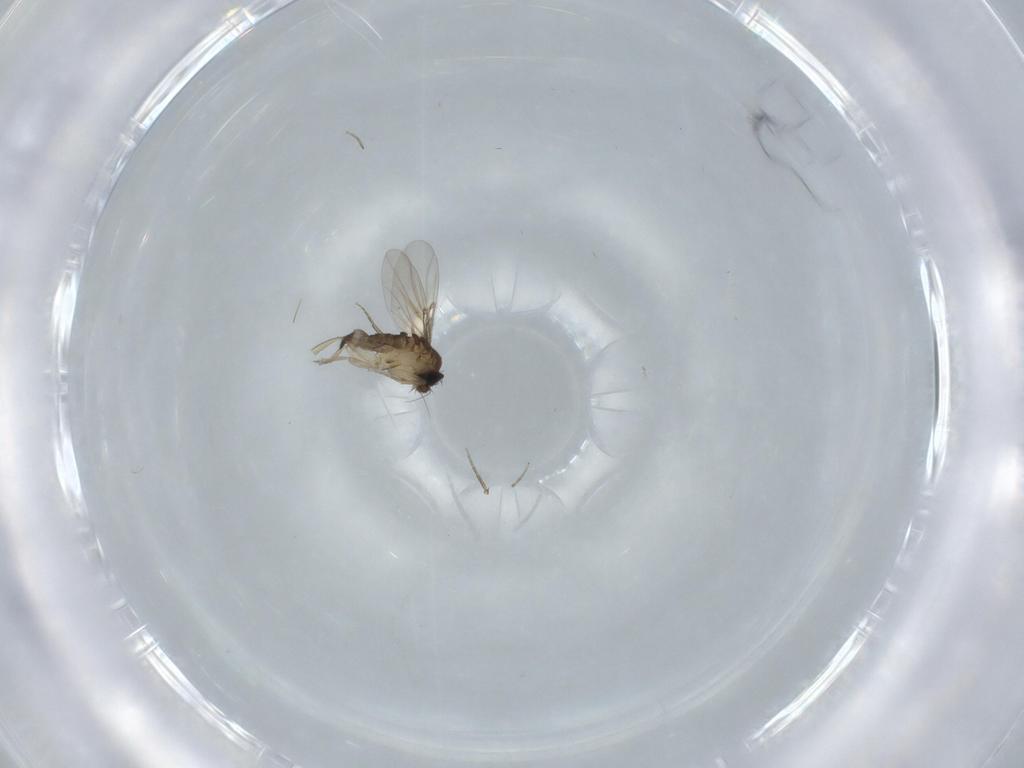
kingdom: Animalia
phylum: Arthropoda
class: Insecta
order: Diptera
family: Phoridae
